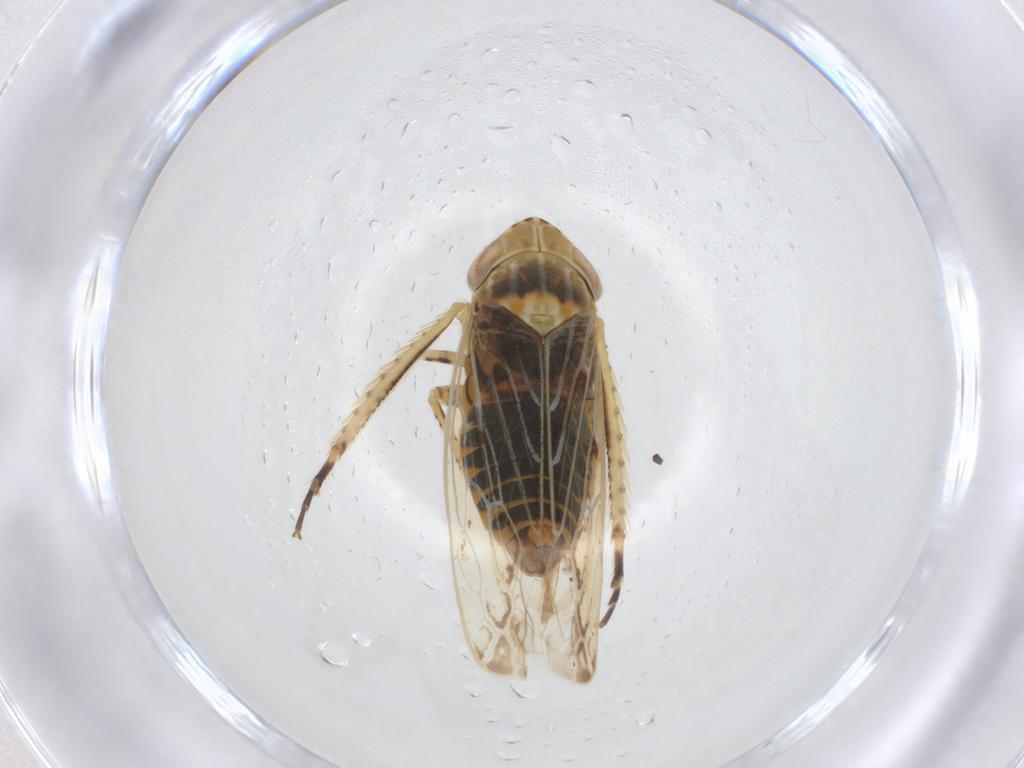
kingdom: Animalia
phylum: Arthropoda
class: Insecta
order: Hemiptera
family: Cicadellidae
